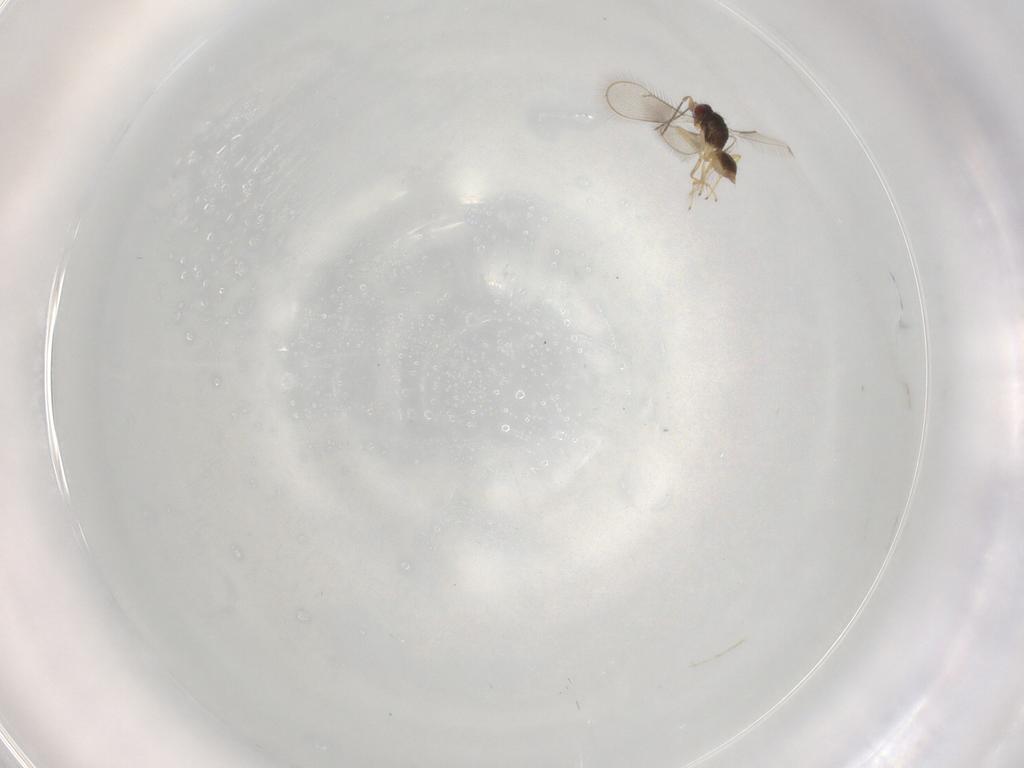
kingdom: Animalia
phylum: Arthropoda
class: Insecta
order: Hymenoptera
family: Eulophidae
